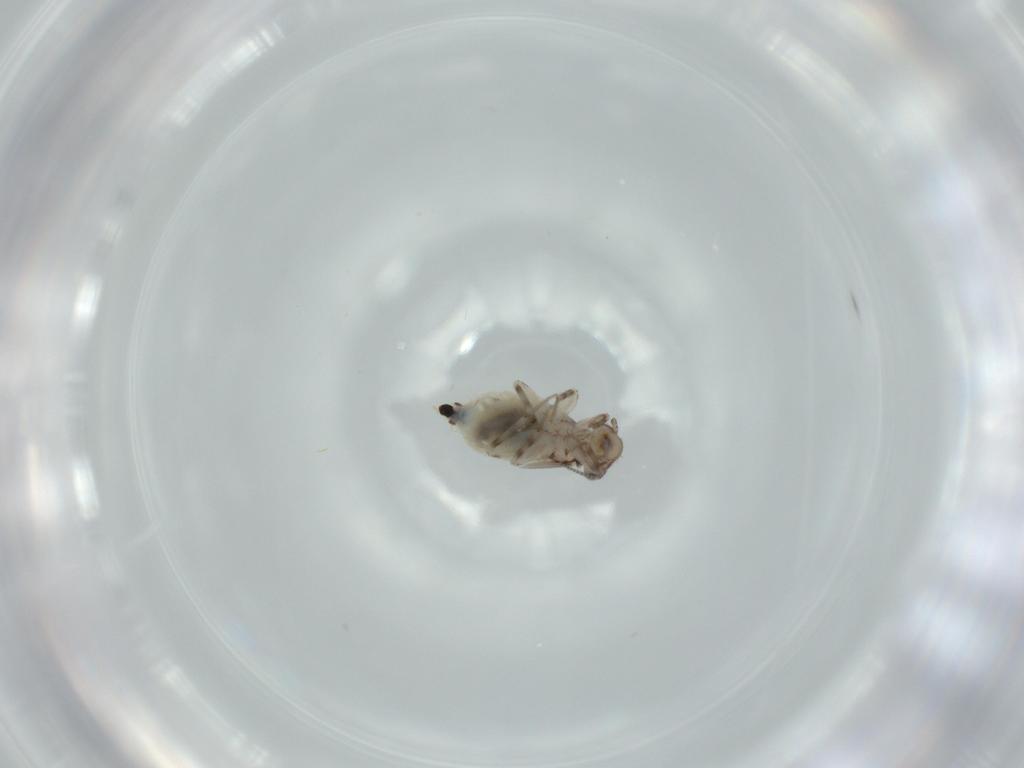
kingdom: Animalia
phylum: Arthropoda
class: Insecta
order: Psocodea
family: Lepidopsocidae
